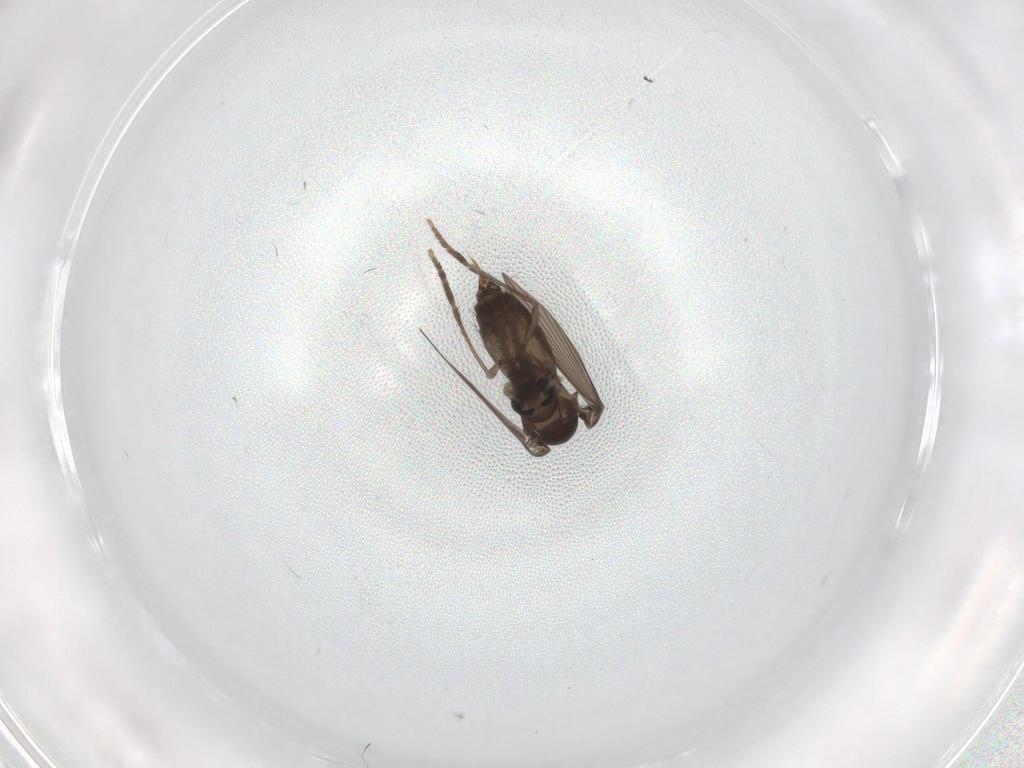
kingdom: Animalia
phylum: Arthropoda
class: Insecta
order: Diptera
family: Psychodidae
